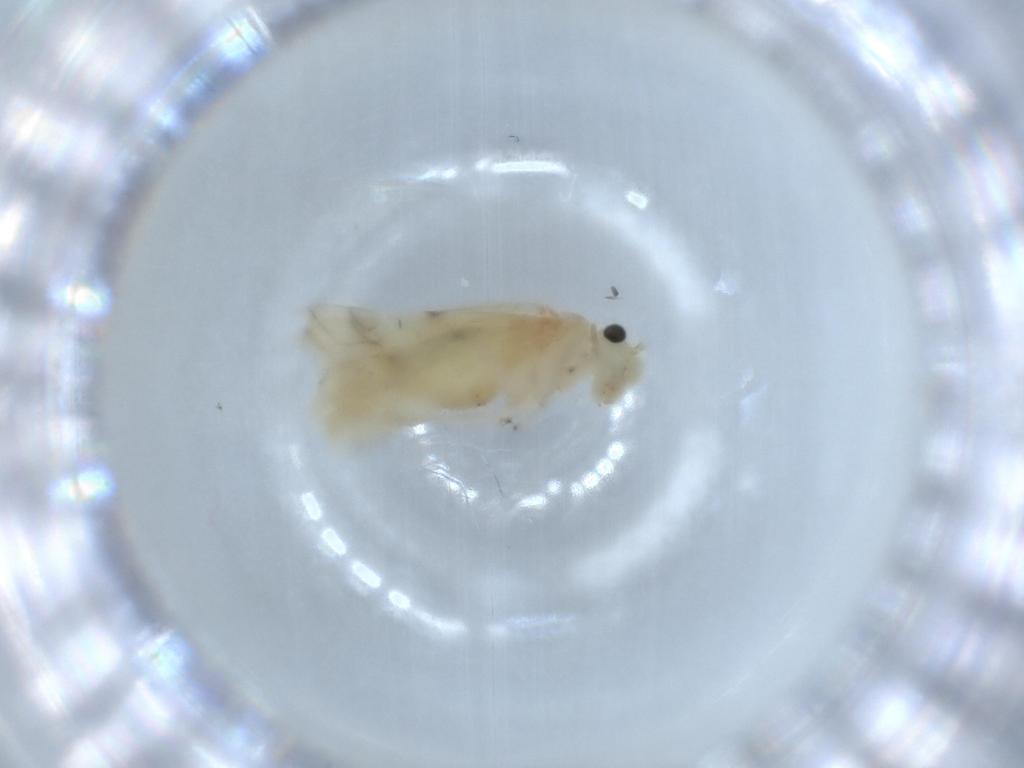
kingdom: Animalia
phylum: Arthropoda
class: Insecta
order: Psocodea
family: Caeciliusidae
